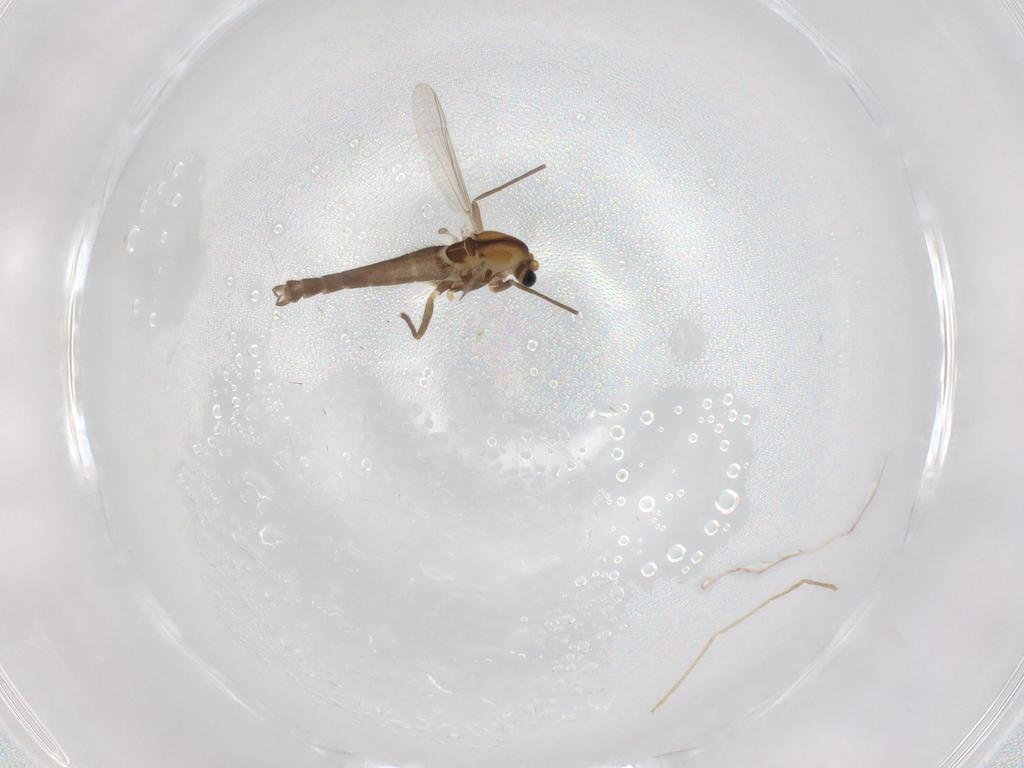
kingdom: Animalia
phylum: Arthropoda
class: Insecta
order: Diptera
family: Chironomidae
